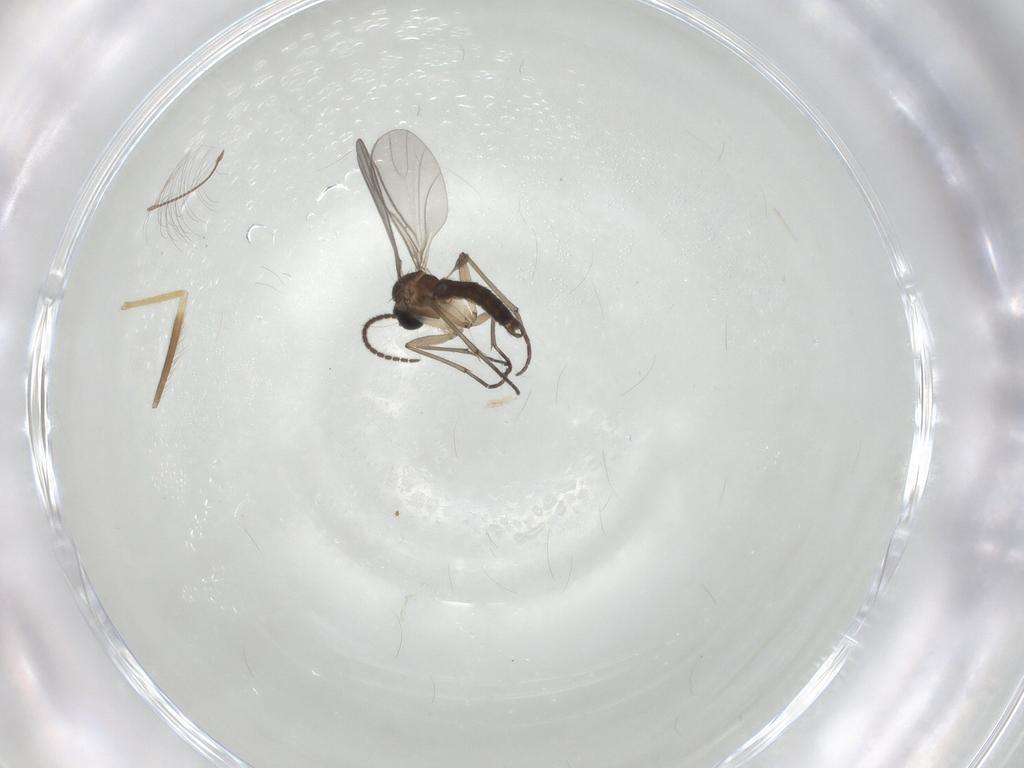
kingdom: Animalia
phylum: Arthropoda
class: Insecta
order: Diptera
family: Sciaridae
